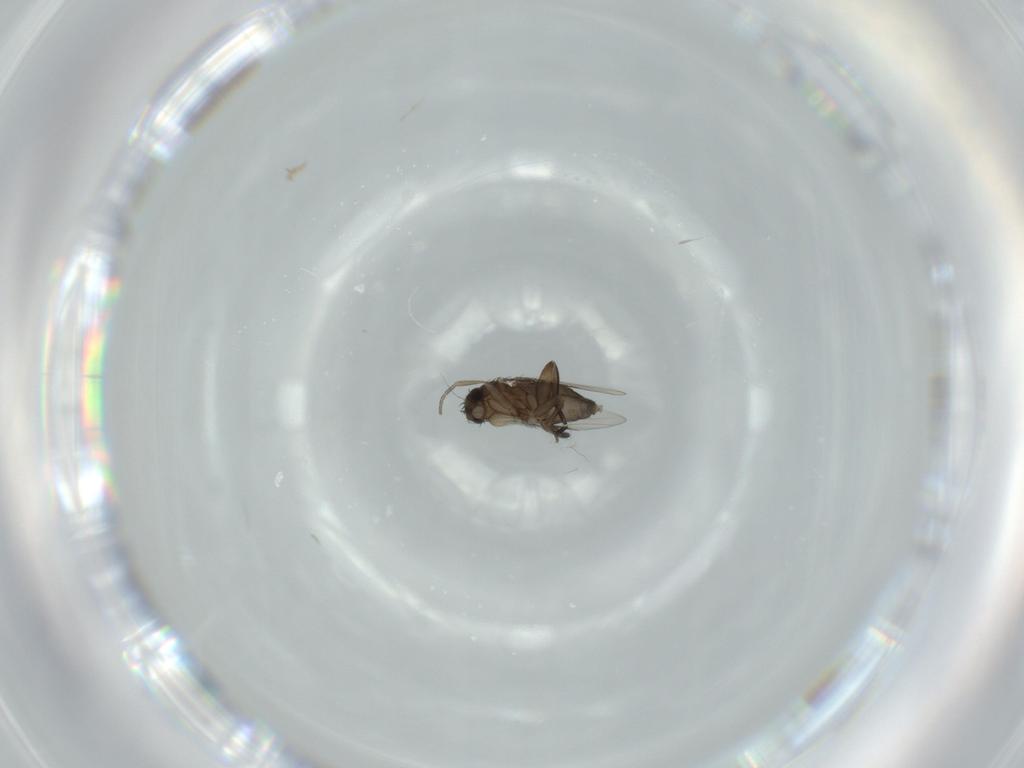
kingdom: Animalia
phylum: Arthropoda
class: Insecta
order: Diptera
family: Phoridae
